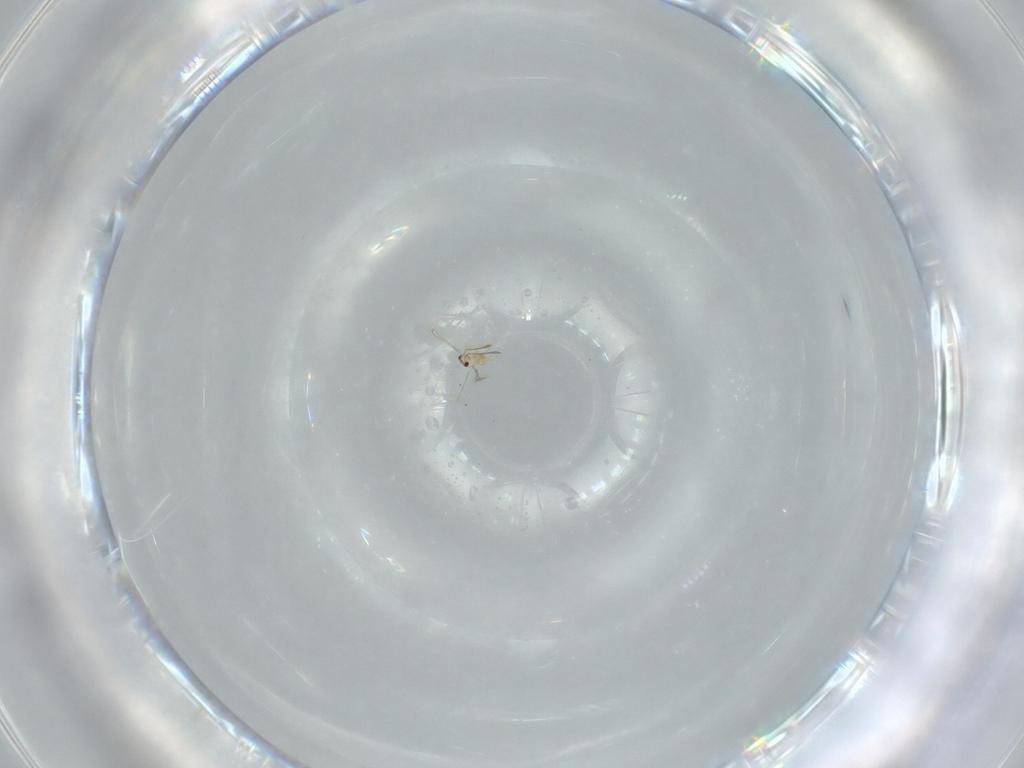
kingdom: Animalia
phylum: Arthropoda
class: Insecta
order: Hymenoptera
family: Mymaridae
